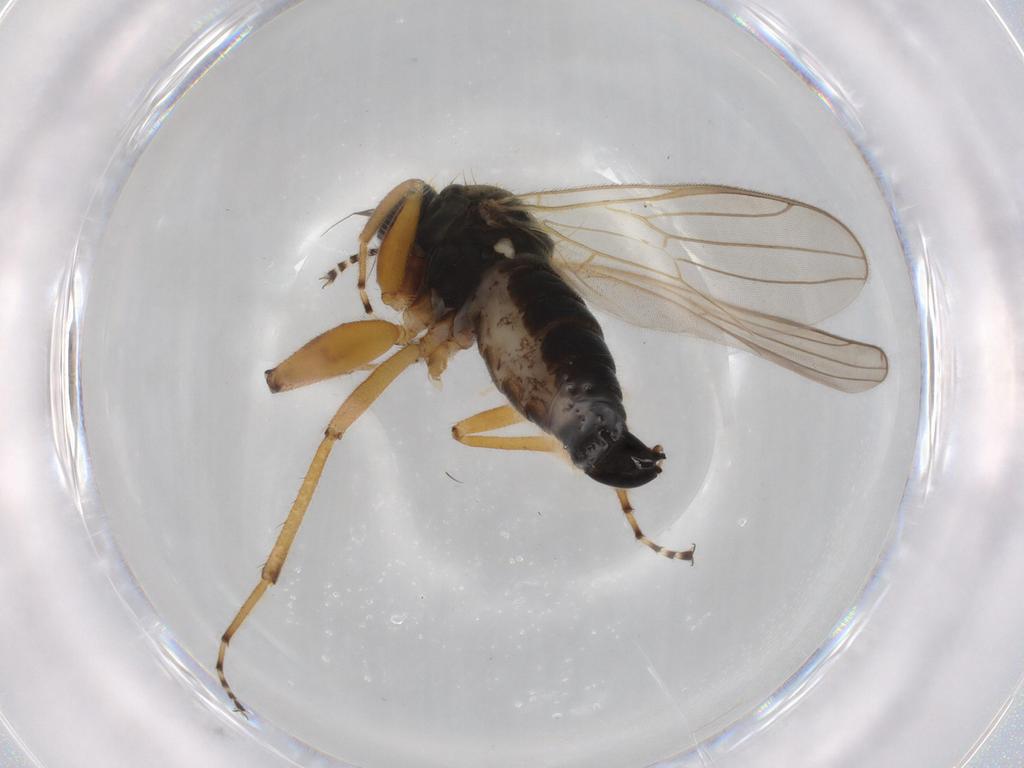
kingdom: Animalia
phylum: Arthropoda
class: Insecta
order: Diptera
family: Hybotidae
